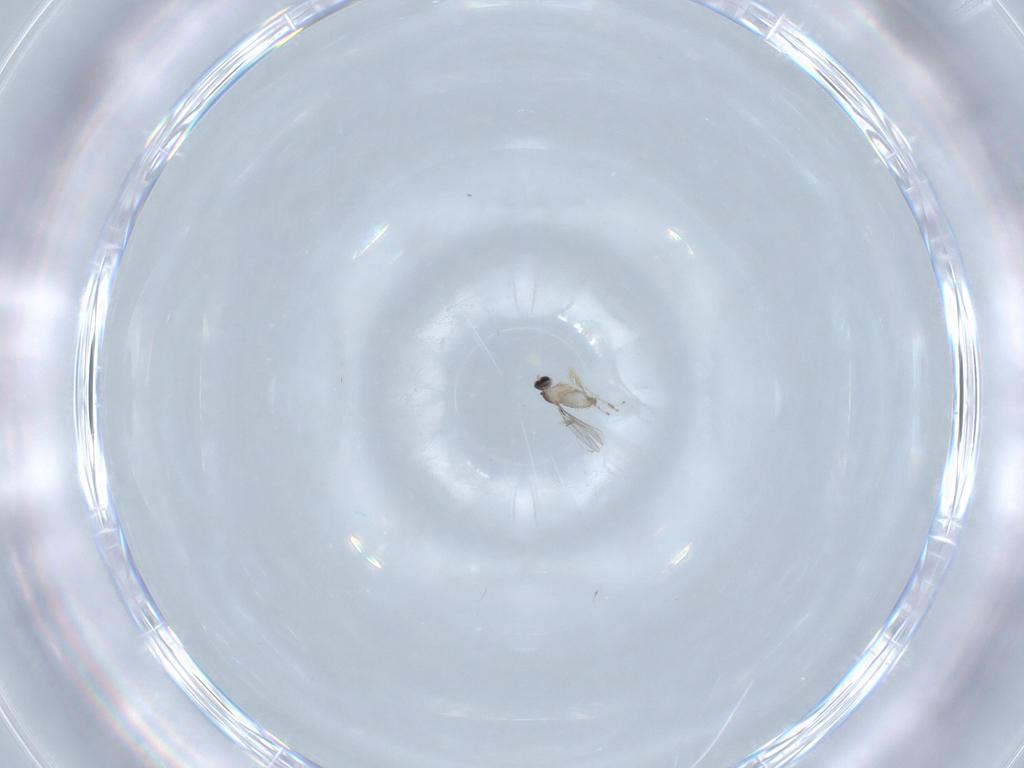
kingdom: Animalia
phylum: Arthropoda
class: Insecta
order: Diptera
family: Cecidomyiidae
